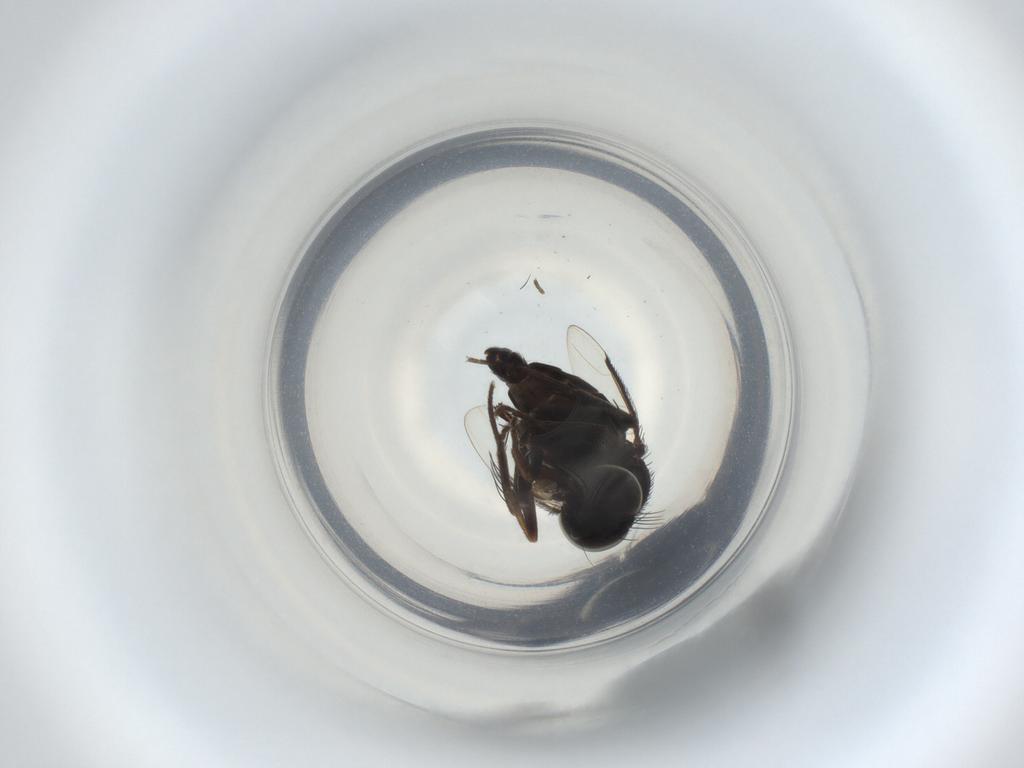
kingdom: Animalia
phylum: Arthropoda
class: Insecta
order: Diptera
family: Phoridae
